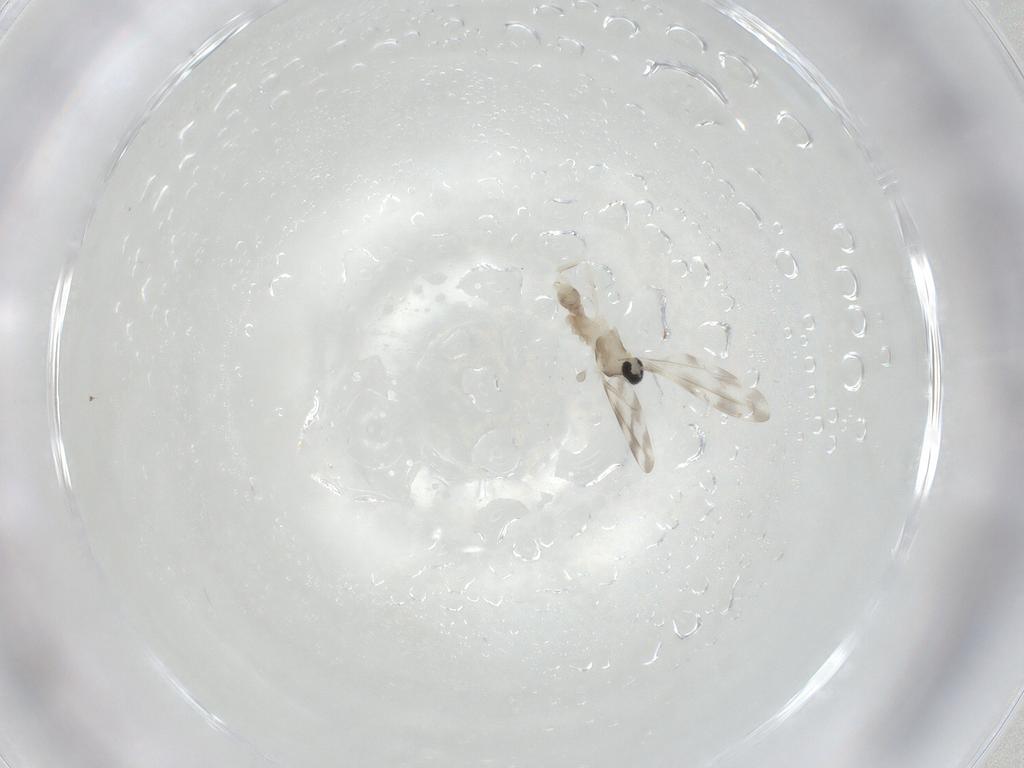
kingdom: Animalia
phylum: Arthropoda
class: Insecta
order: Diptera
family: Cecidomyiidae
